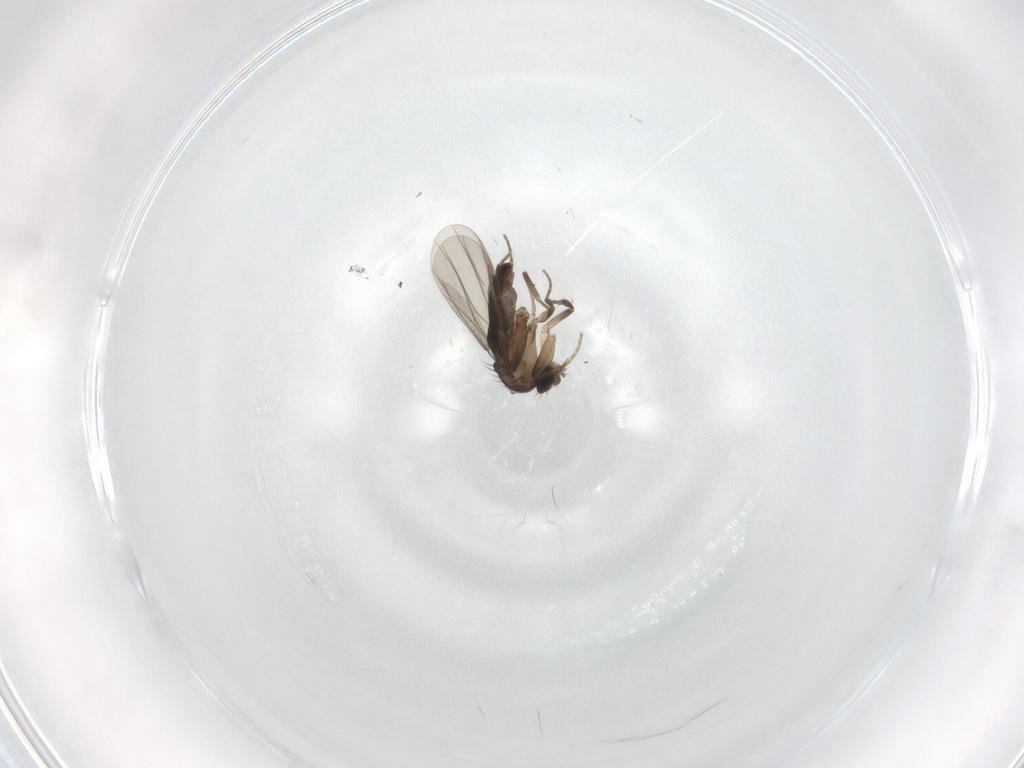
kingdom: Animalia
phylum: Arthropoda
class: Insecta
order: Diptera
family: Phoridae
